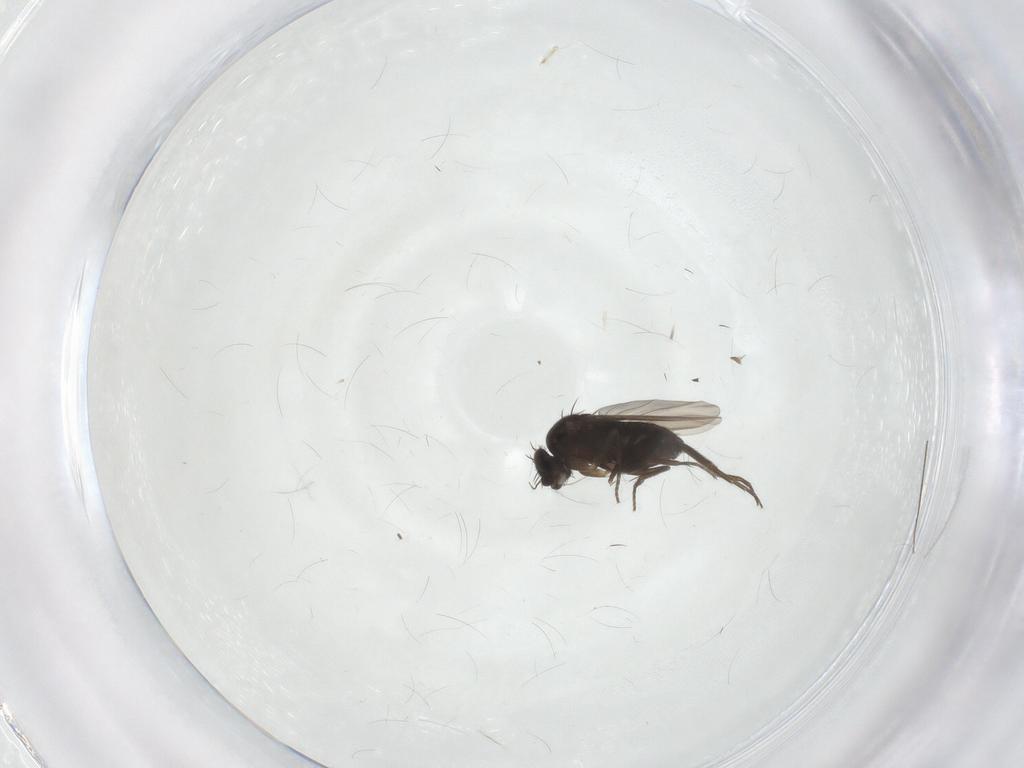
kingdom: Animalia
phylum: Arthropoda
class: Insecta
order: Diptera
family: Phoridae
